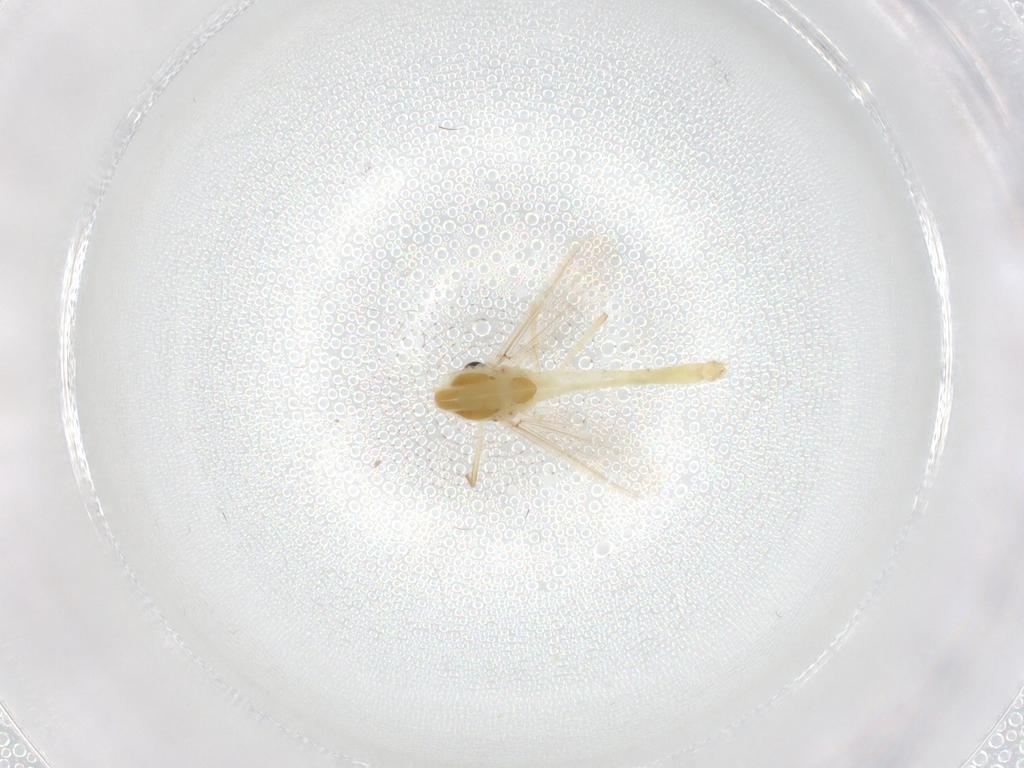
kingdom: Animalia
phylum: Arthropoda
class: Insecta
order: Diptera
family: Chironomidae
